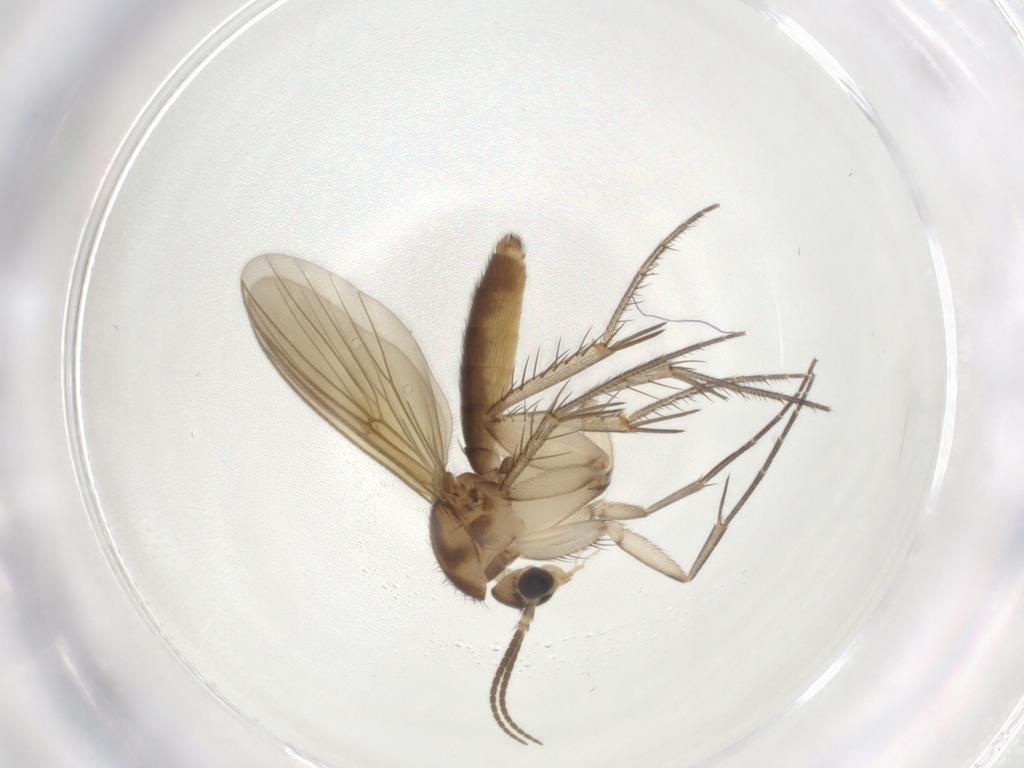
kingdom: Animalia
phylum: Arthropoda
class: Insecta
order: Diptera
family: Mycetophilidae
